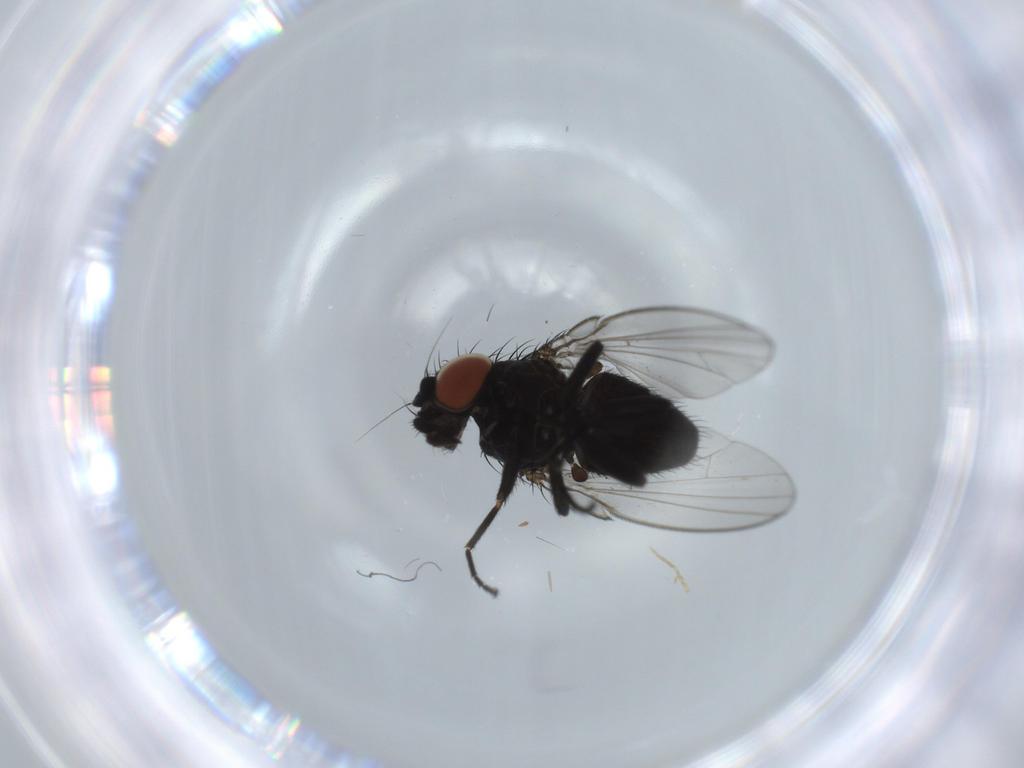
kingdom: Animalia
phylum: Arthropoda
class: Insecta
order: Diptera
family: Milichiidae
